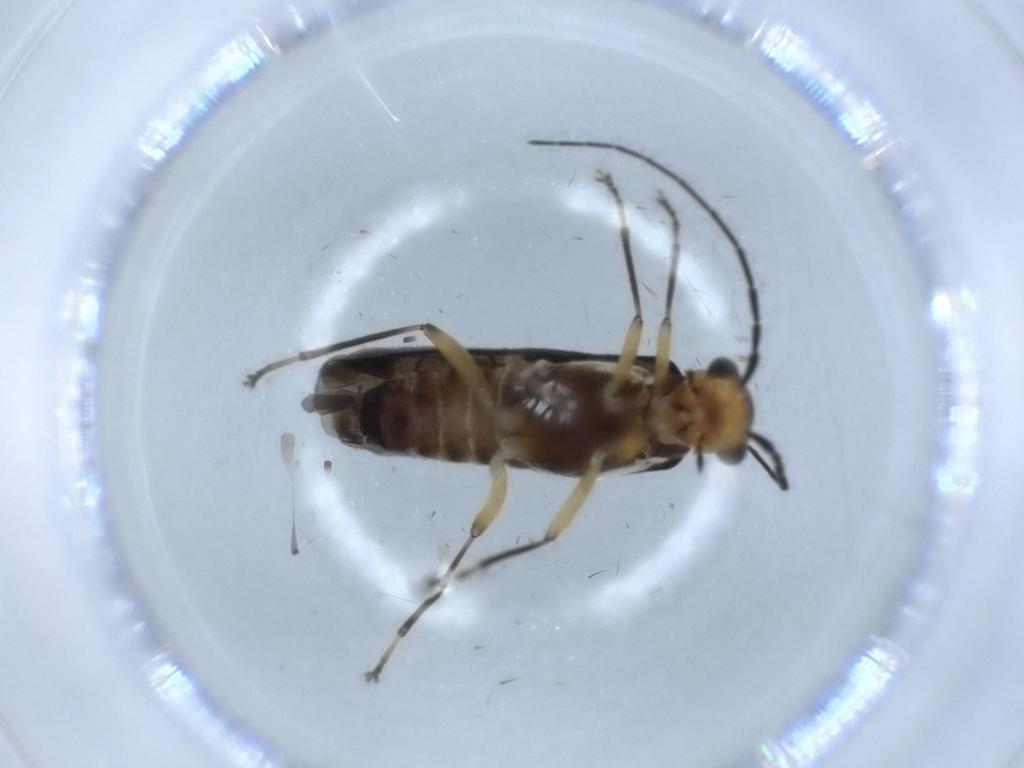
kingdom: Animalia
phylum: Arthropoda
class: Insecta
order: Coleoptera
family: Cantharidae
